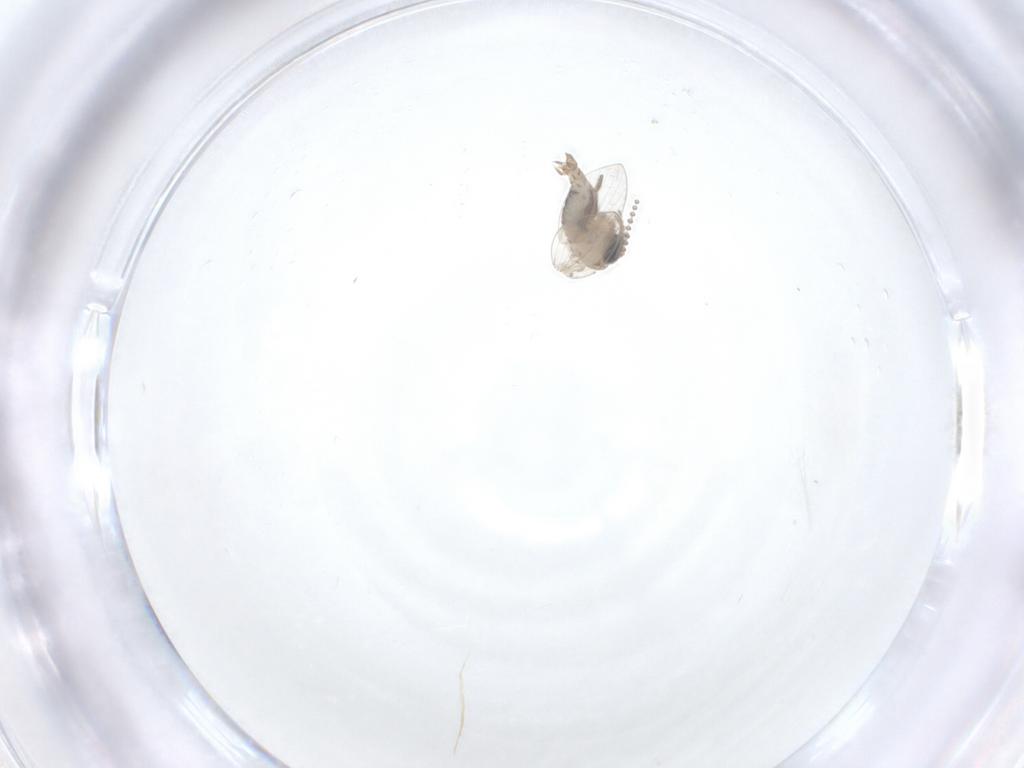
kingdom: Animalia
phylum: Arthropoda
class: Insecta
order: Diptera
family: Psychodidae
